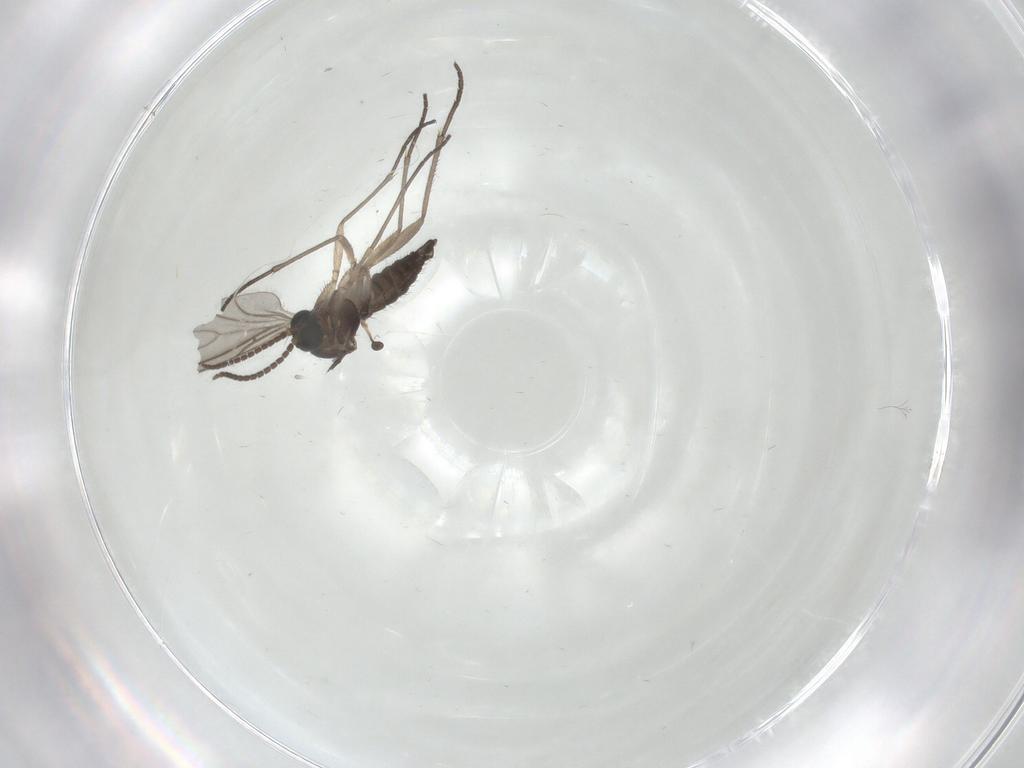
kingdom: Animalia
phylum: Arthropoda
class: Insecta
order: Diptera
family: Sciaridae
